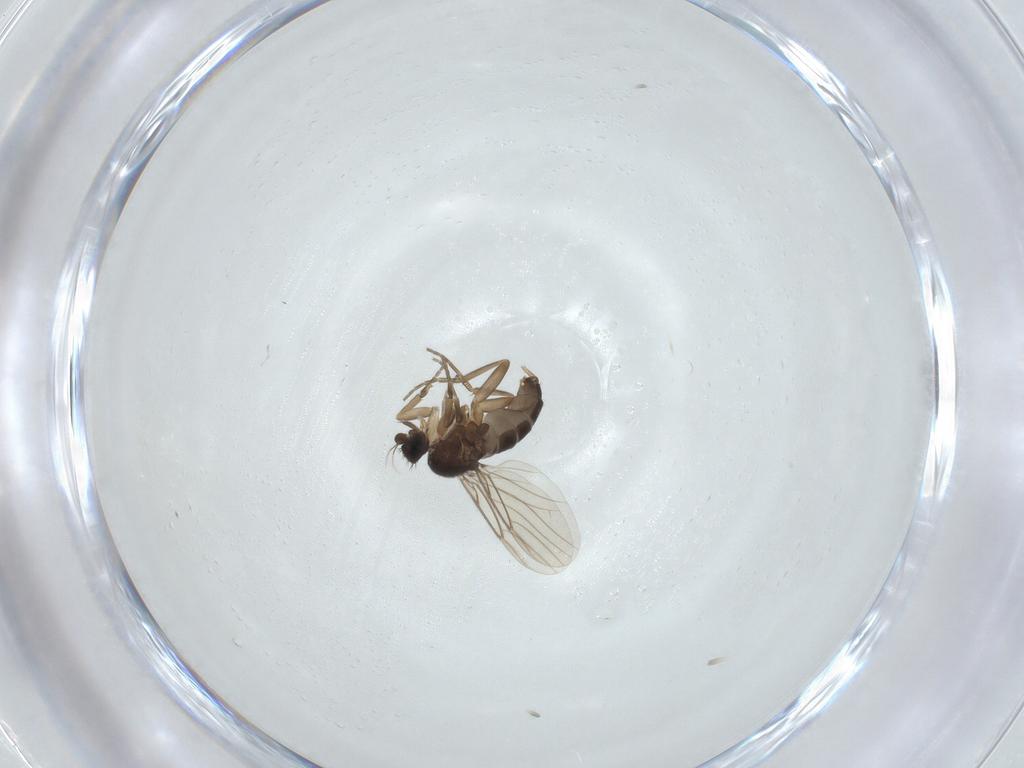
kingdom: Animalia
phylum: Arthropoda
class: Insecta
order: Diptera
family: Phoridae
